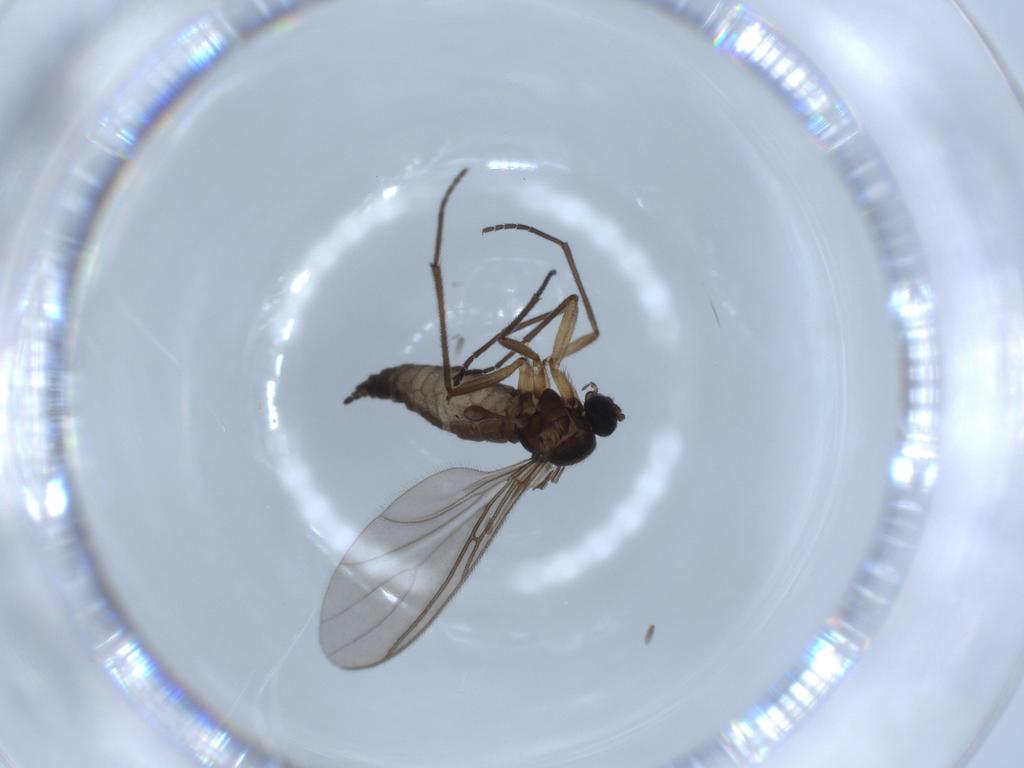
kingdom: Animalia
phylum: Arthropoda
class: Insecta
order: Diptera
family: Sciaridae
